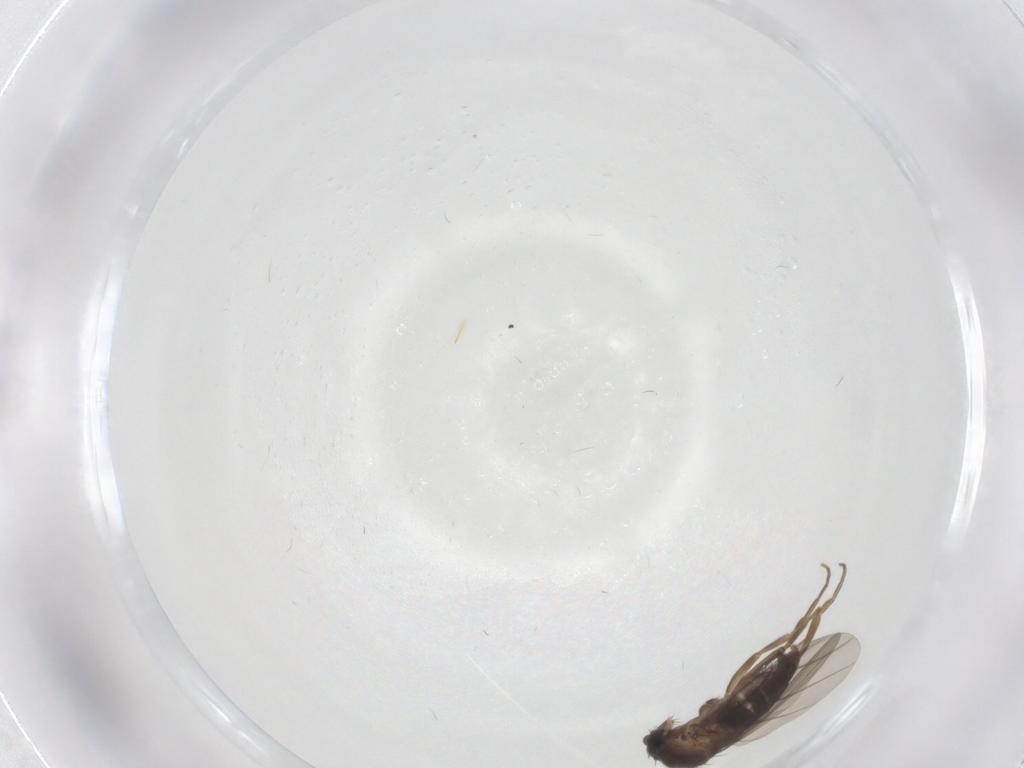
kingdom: Animalia
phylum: Arthropoda
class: Insecta
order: Diptera
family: Phoridae
